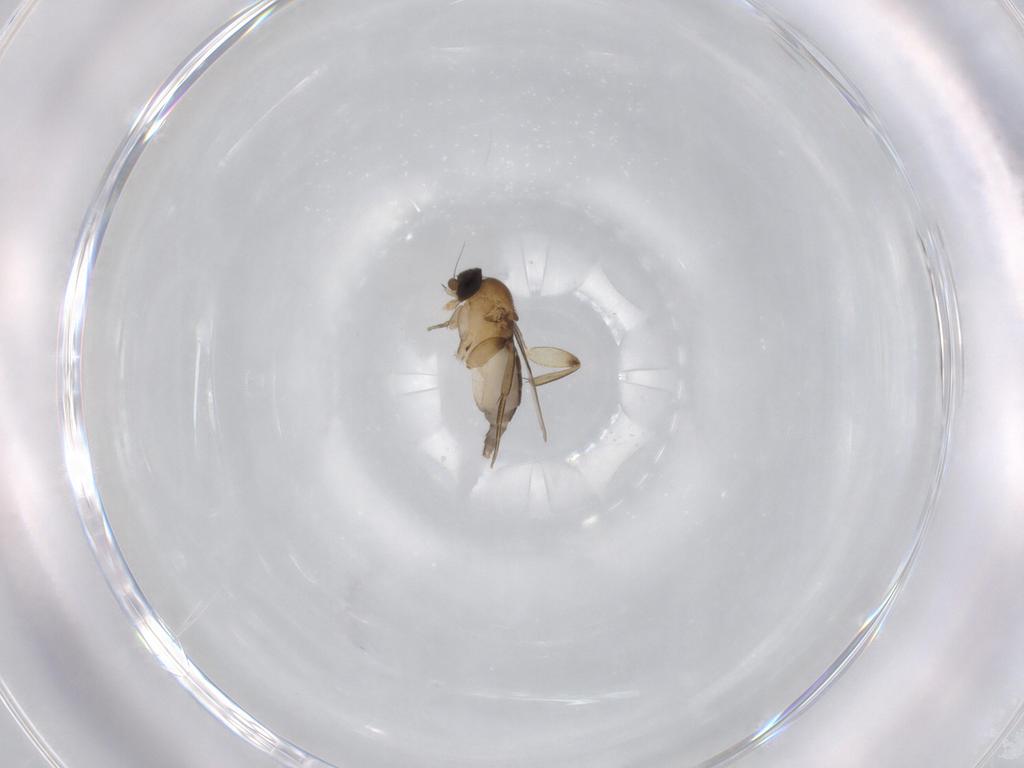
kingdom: Animalia
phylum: Arthropoda
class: Insecta
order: Diptera
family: Phoridae
